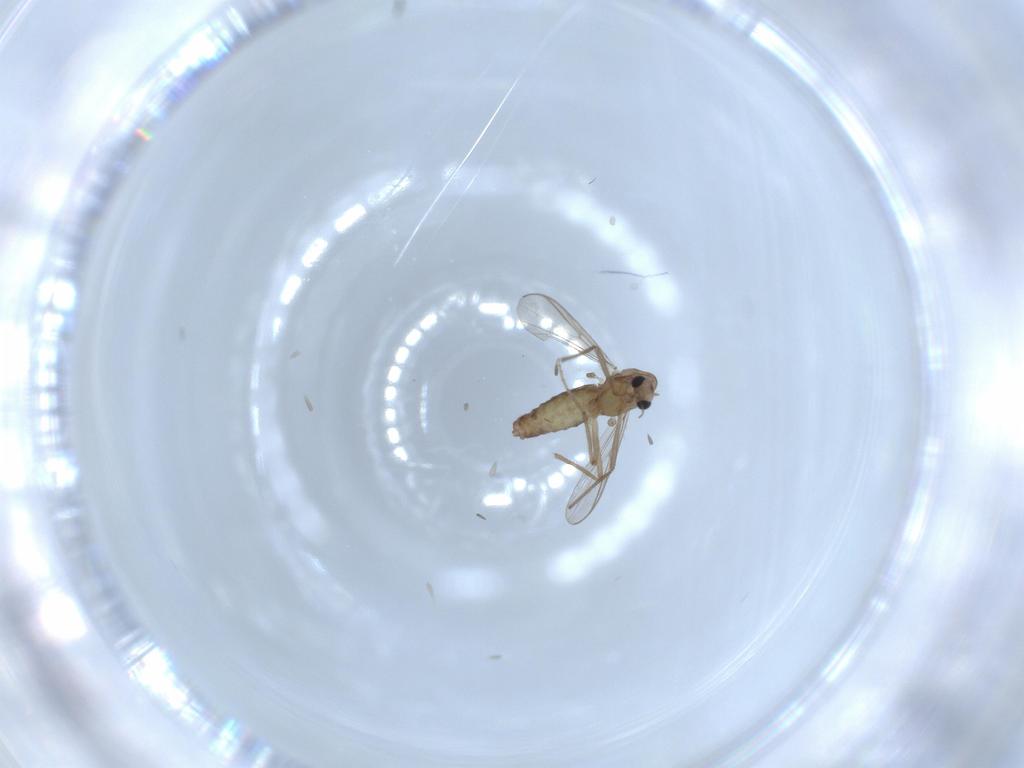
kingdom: Animalia
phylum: Arthropoda
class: Insecta
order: Diptera
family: Chironomidae
